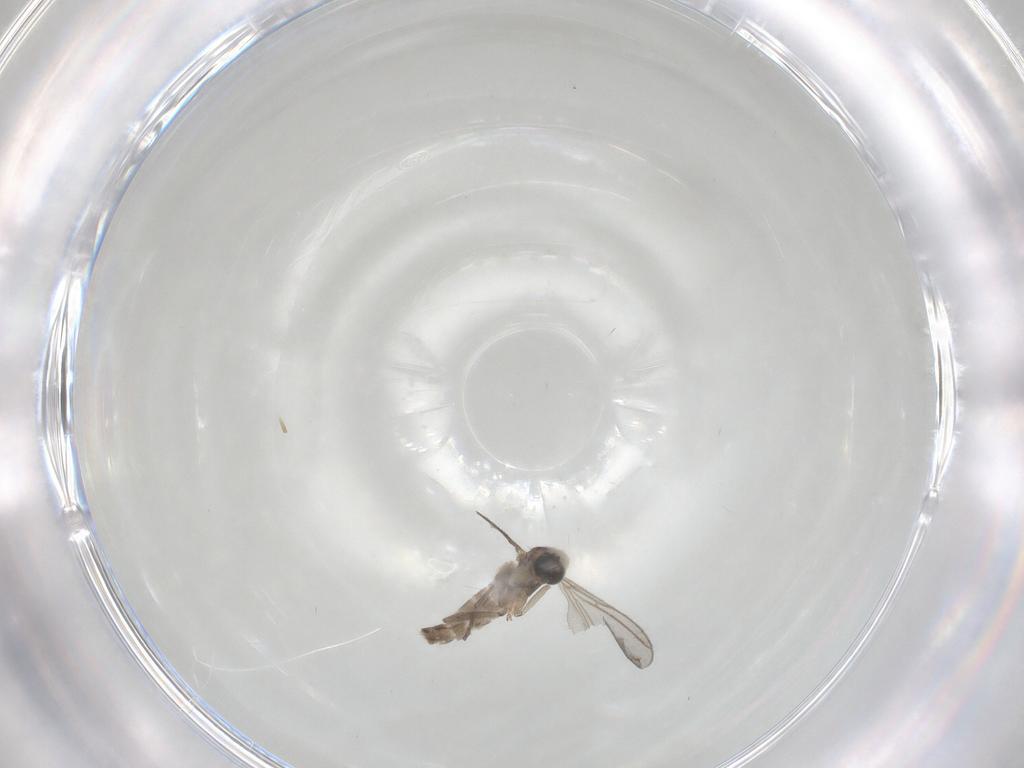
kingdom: Animalia
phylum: Arthropoda
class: Insecta
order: Diptera
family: Sciaridae
